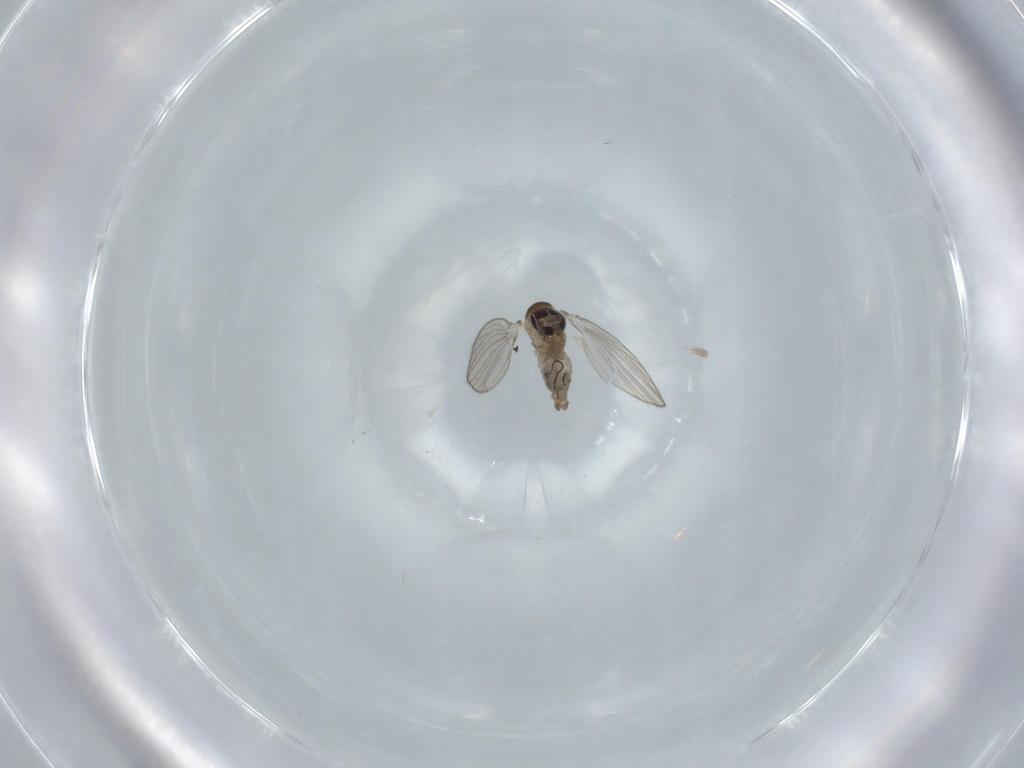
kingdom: Animalia
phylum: Arthropoda
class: Insecta
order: Diptera
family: Psychodidae
